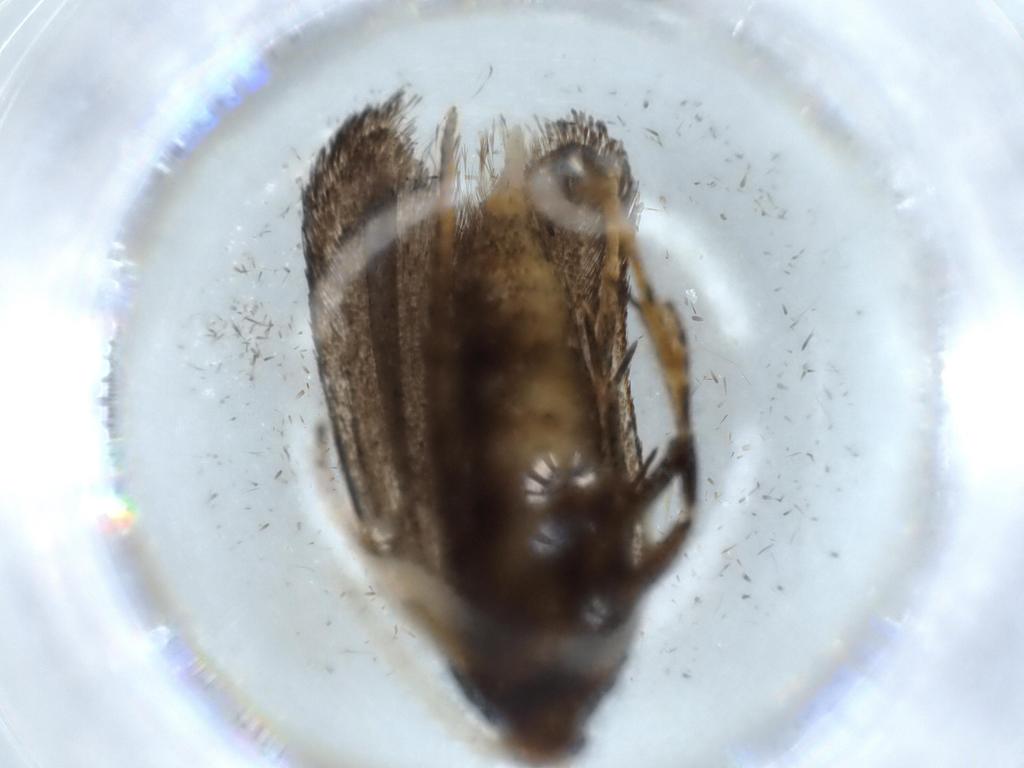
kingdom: Animalia
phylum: Arthropoda
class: Insecta
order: Lepidoptera
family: Lecithoceridae
